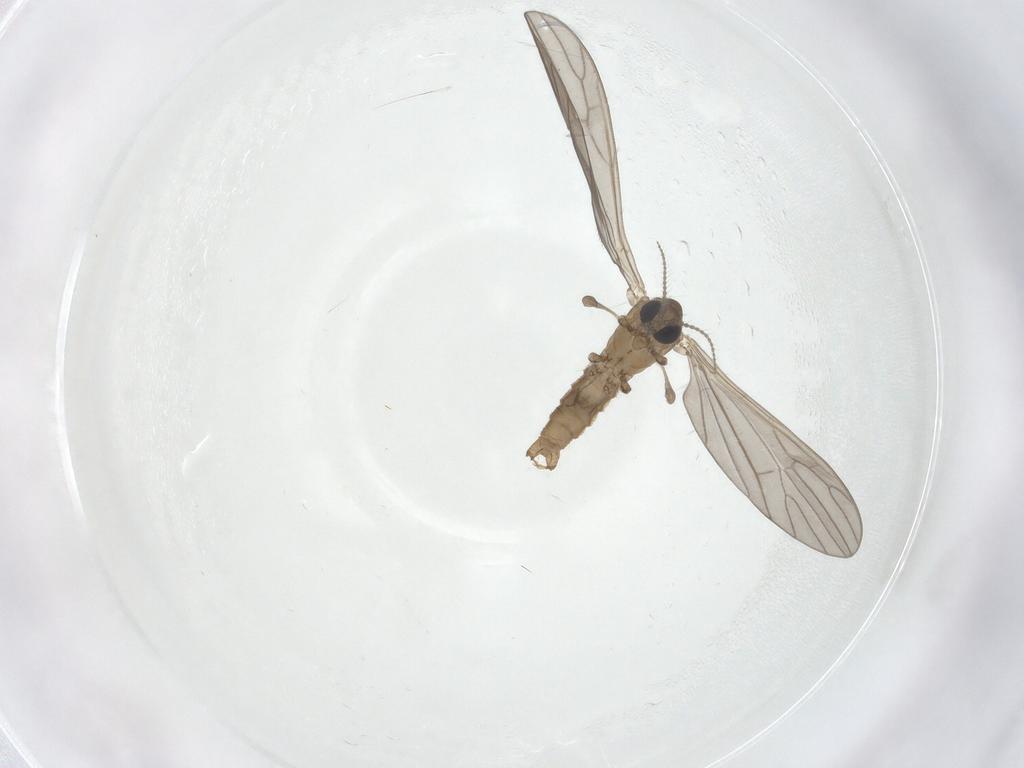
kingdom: Animalia
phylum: Arthropoda
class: Insecta
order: Diptera
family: Limoniidae
